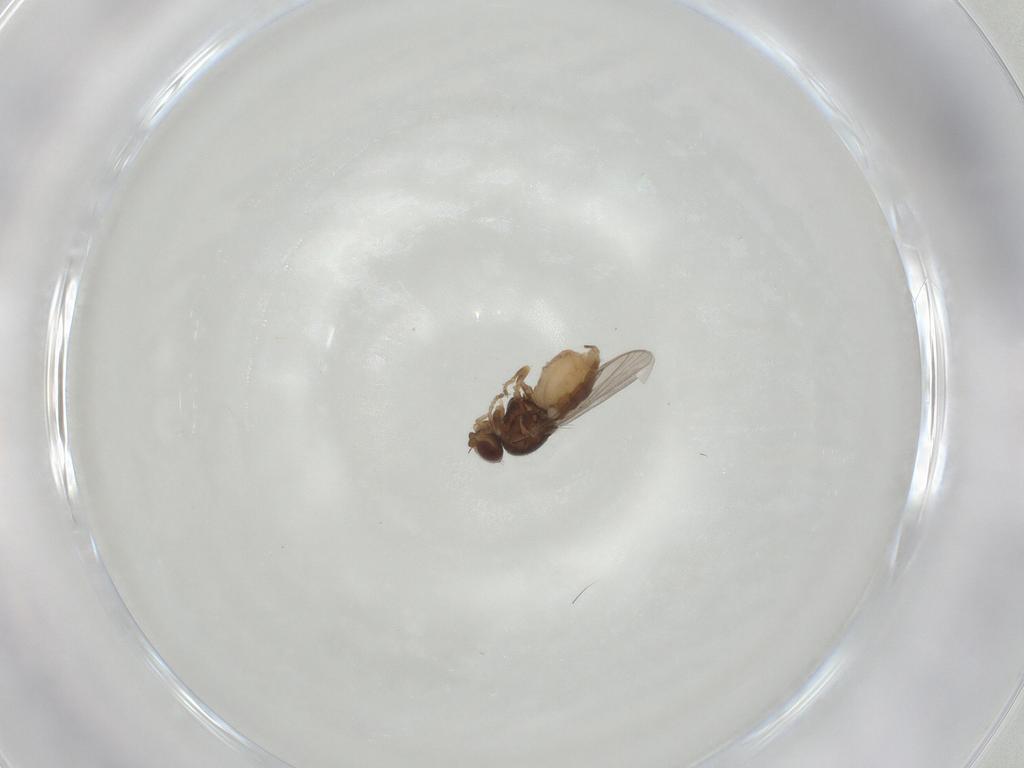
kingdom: Animalia
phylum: Arthropoda
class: Insecta
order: Diptera
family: Chloropidae
